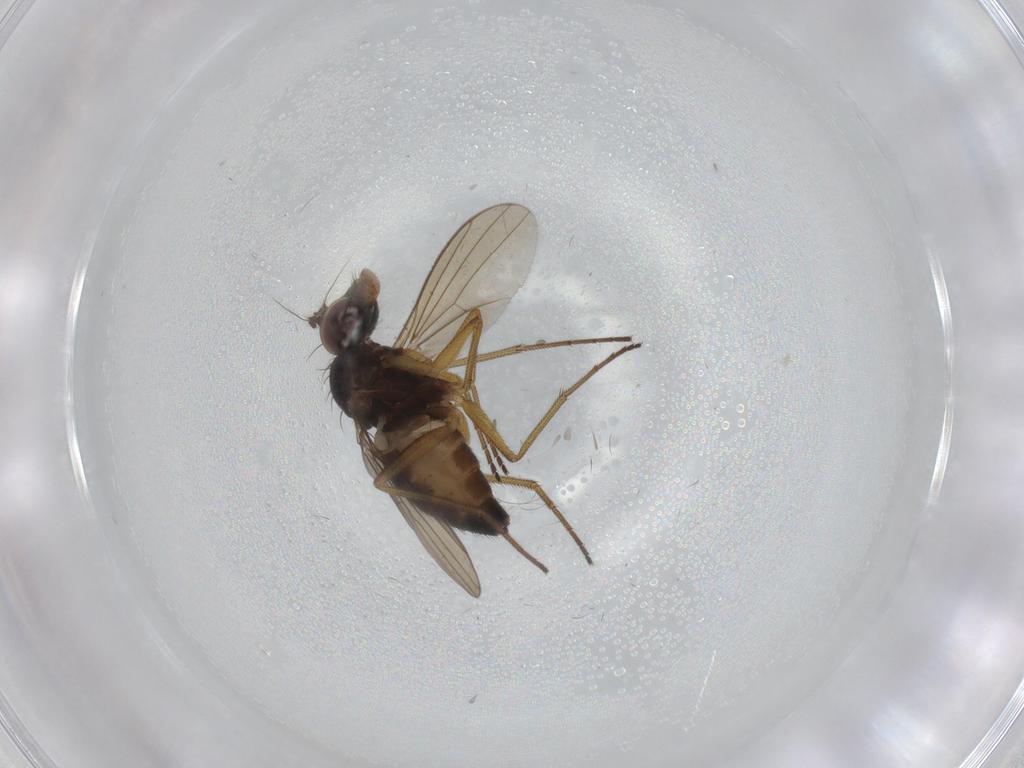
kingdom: Animalia
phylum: Arthropoda
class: Insecta
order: Diptera
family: Dolichopodidae
